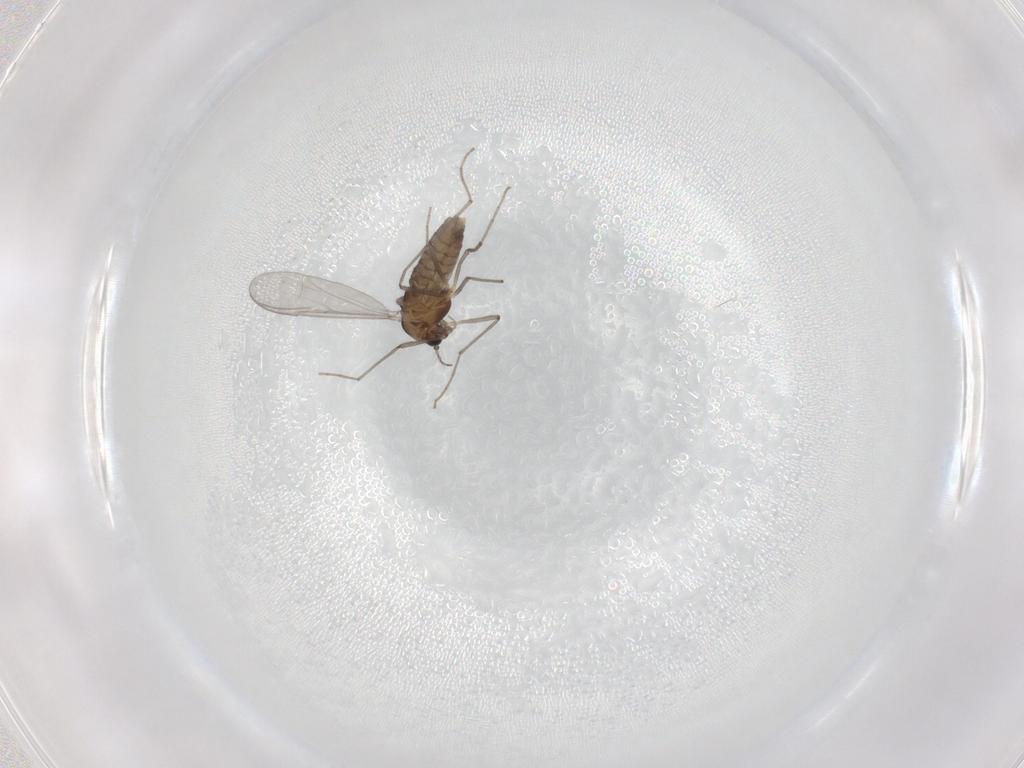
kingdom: Animalia
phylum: Arthropoda
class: Insecta
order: Diptera
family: Chironomidae
